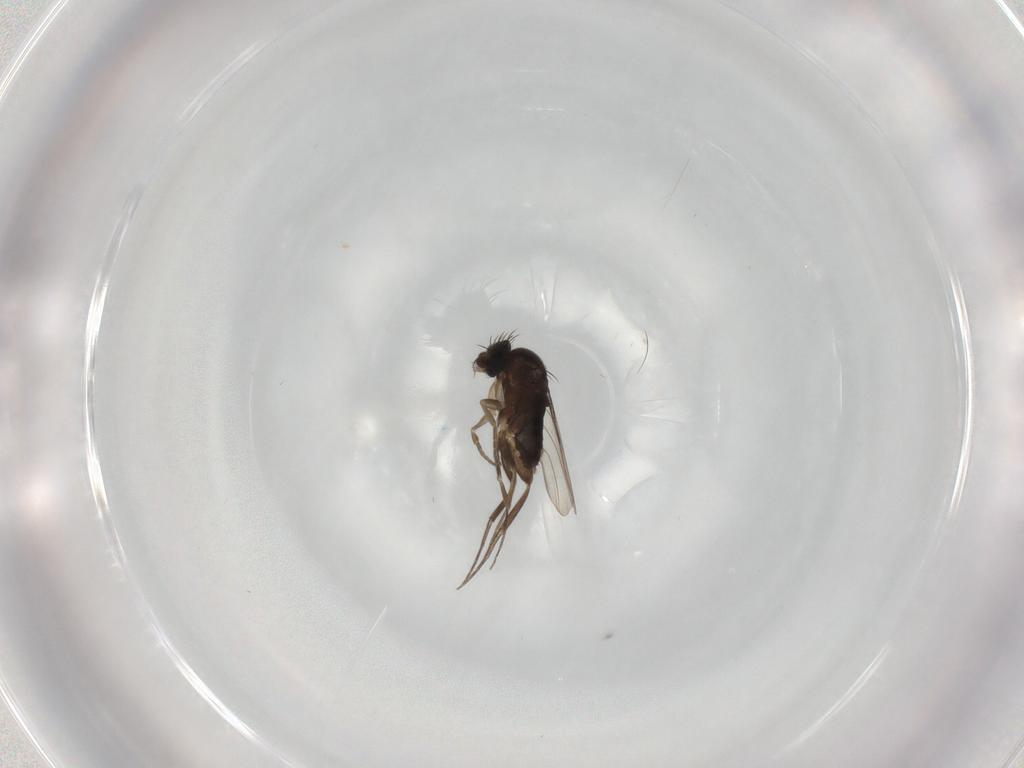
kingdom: Animalia
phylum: Arthropoda
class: Insecta
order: Diptera
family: Phoridae
